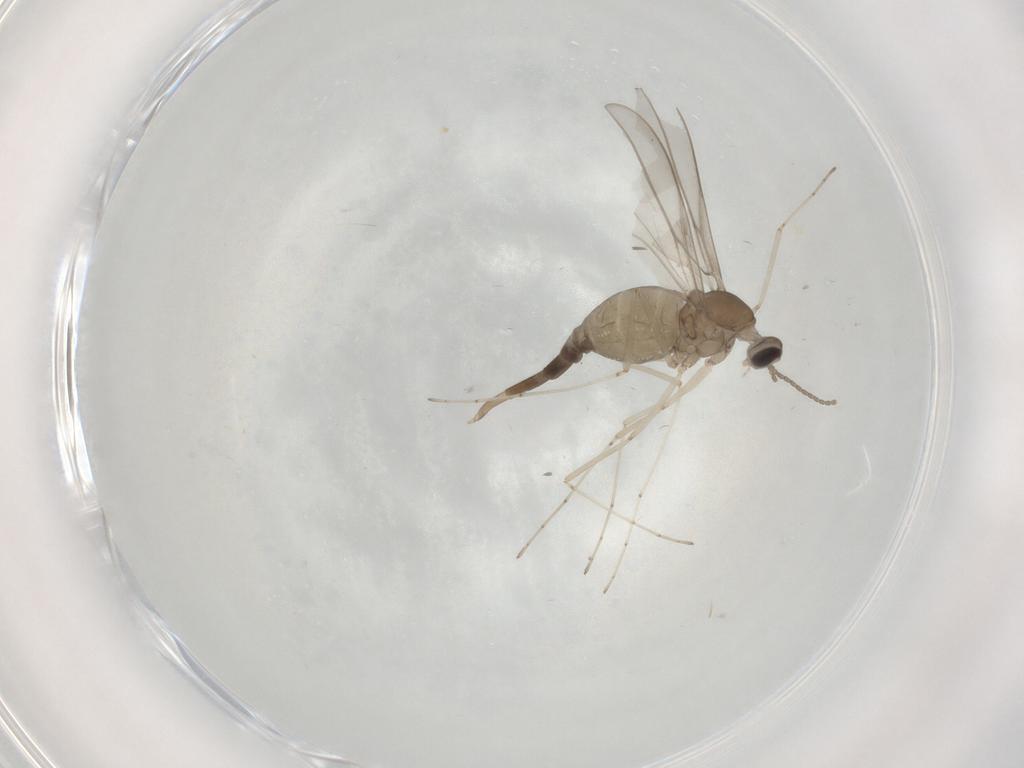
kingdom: Animalia
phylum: Arthropoda
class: Insecta
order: Diptera
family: Cecidomyiidae
